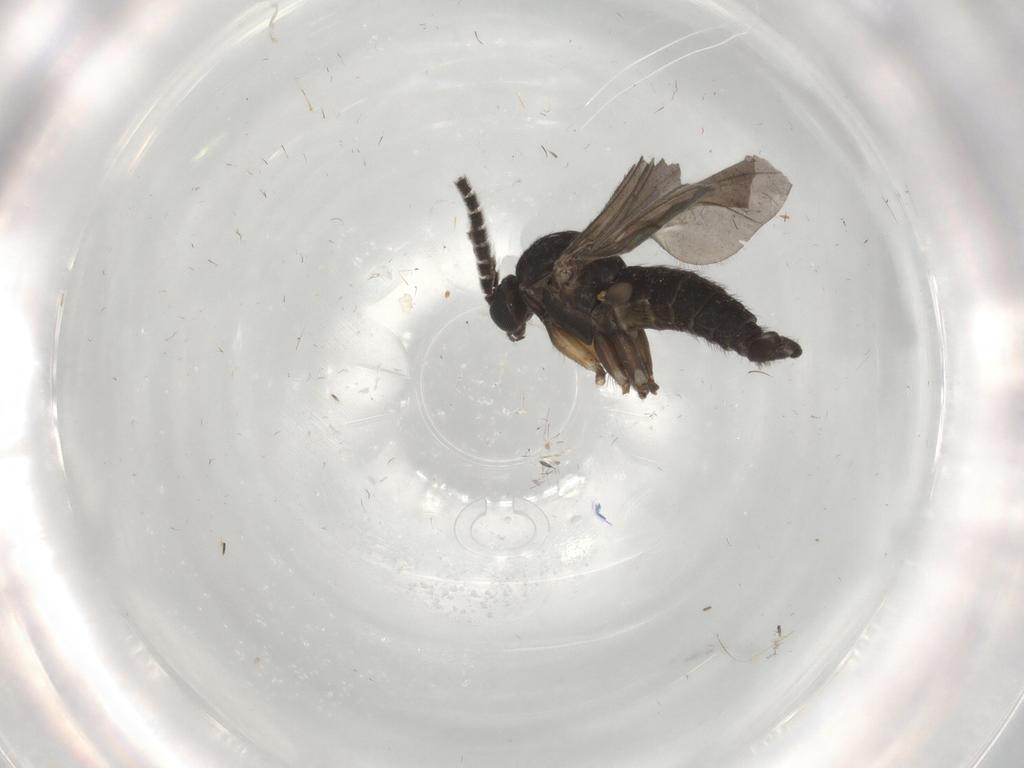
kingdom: Animalia
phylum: Arthropoda
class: Insecta
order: Diptera
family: Sciaridae
